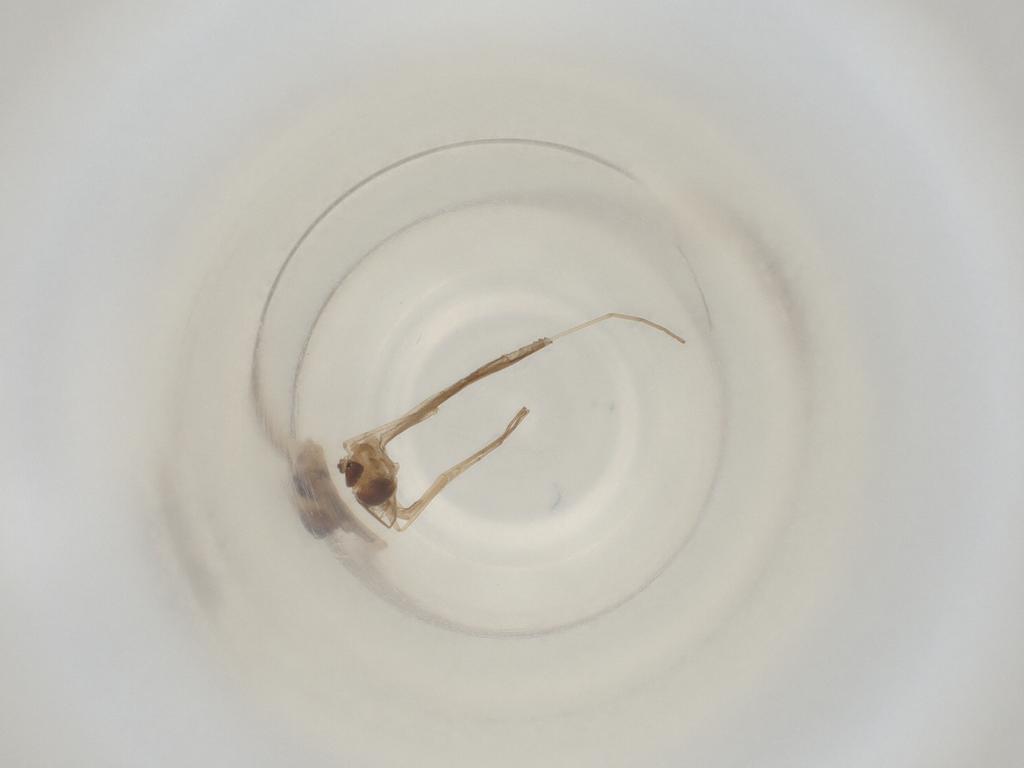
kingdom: Animalia
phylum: Arthropoda
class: Insecta
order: Diptera
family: Cecidomyiidae
